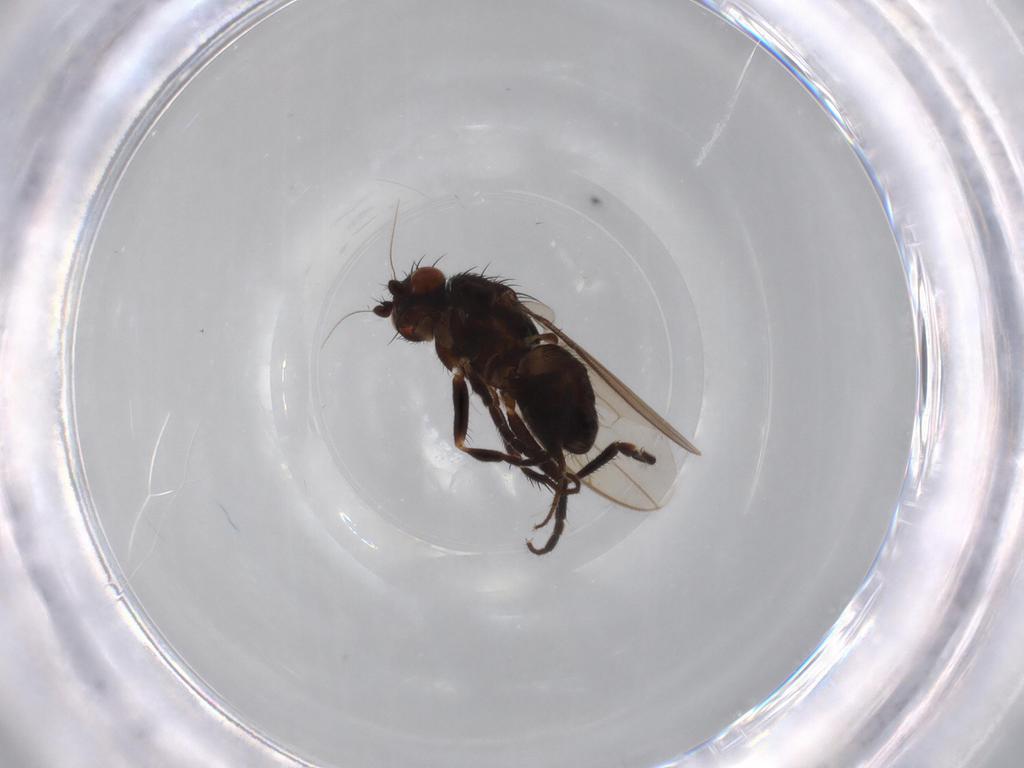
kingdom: Animalia
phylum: Arthropoda
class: Insecta
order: Diptera
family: Sphaeroceridae
